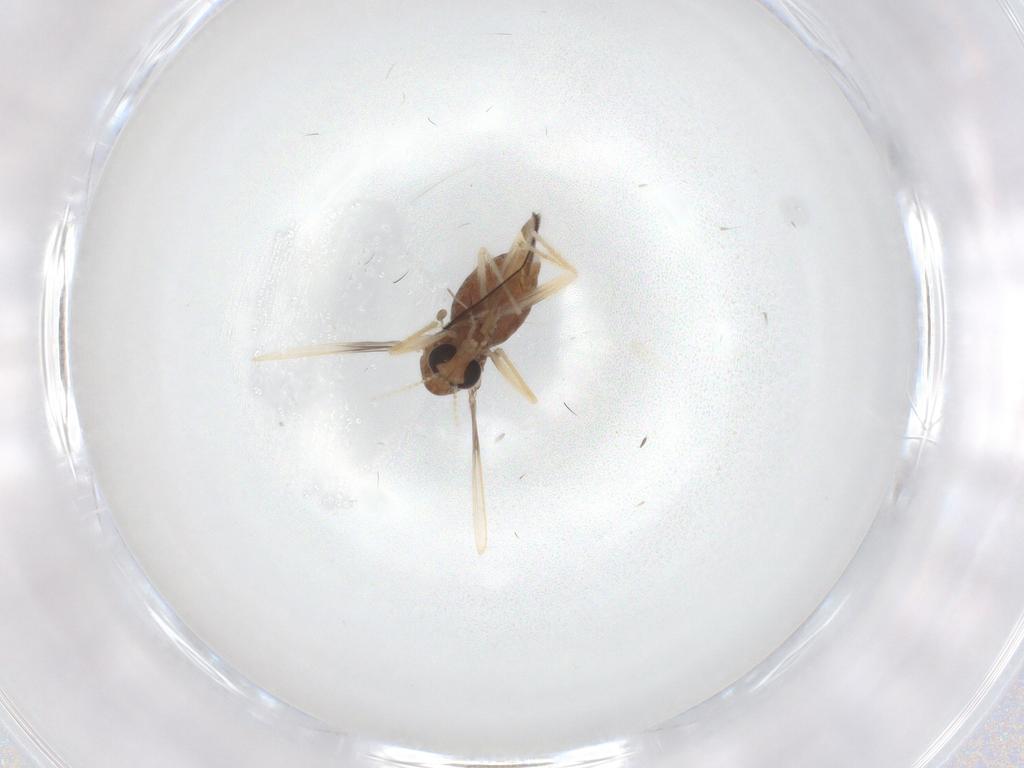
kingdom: Animalia
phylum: Arthropoda
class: Insecta
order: Diptera
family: Chironomidae
